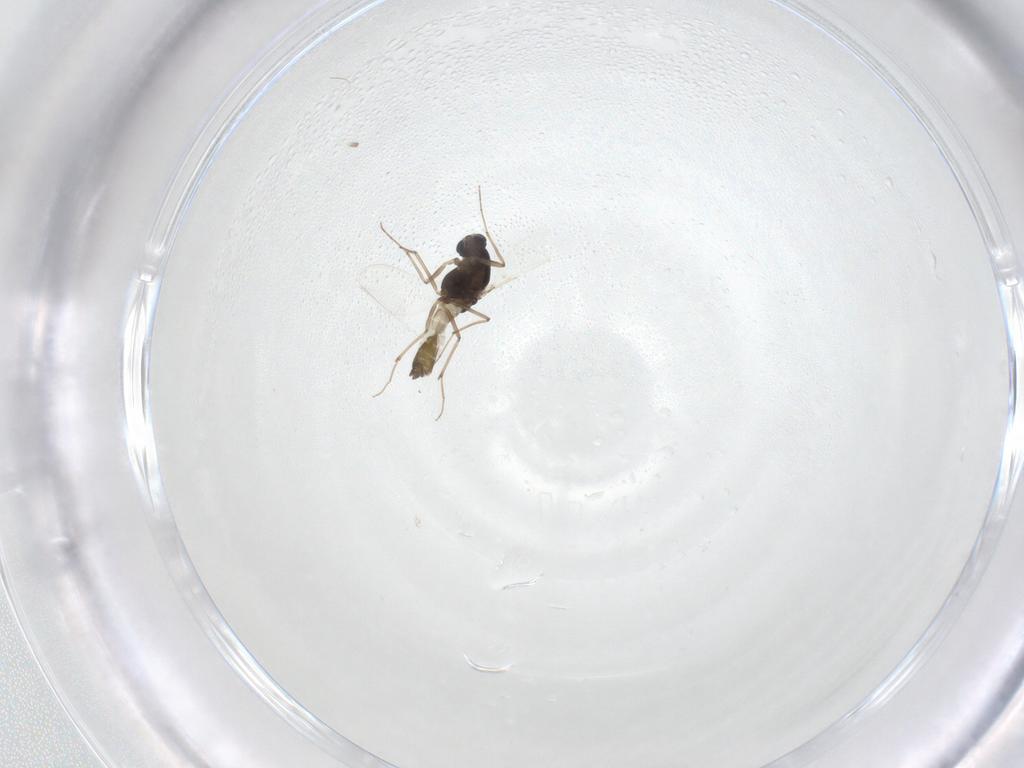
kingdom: Animalia
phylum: Arthropoda
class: Insecta
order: Diptera
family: Chironomidae
